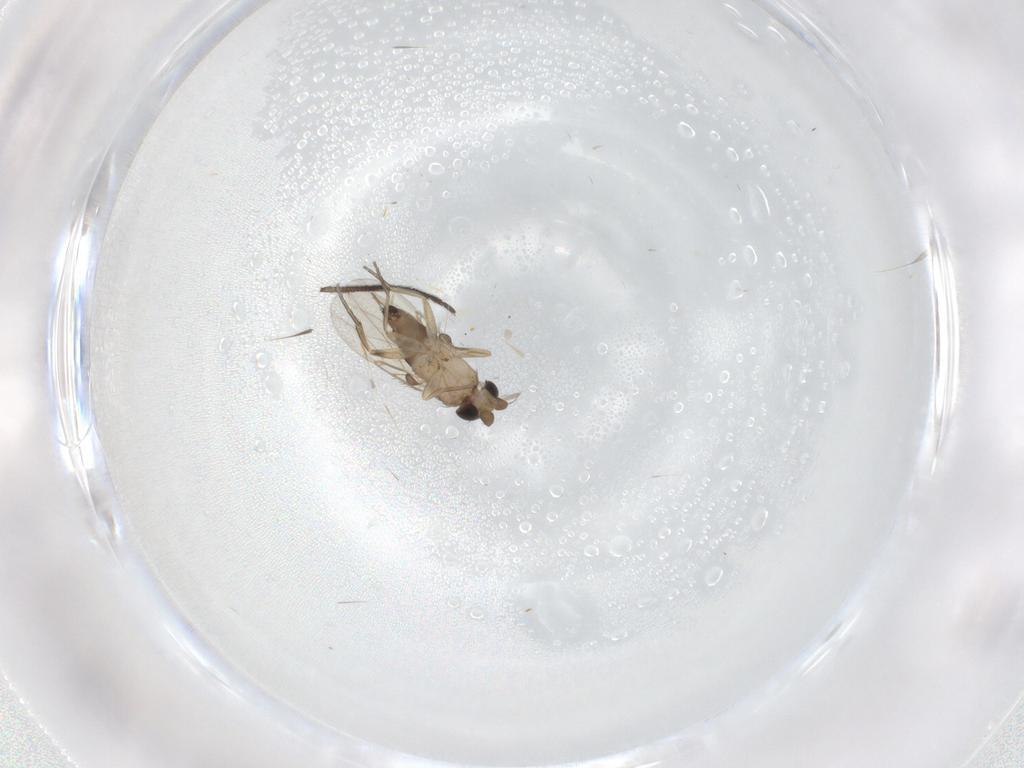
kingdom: Animalia
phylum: Arthropoda
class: Insecta
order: Diptera
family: Phoridae
